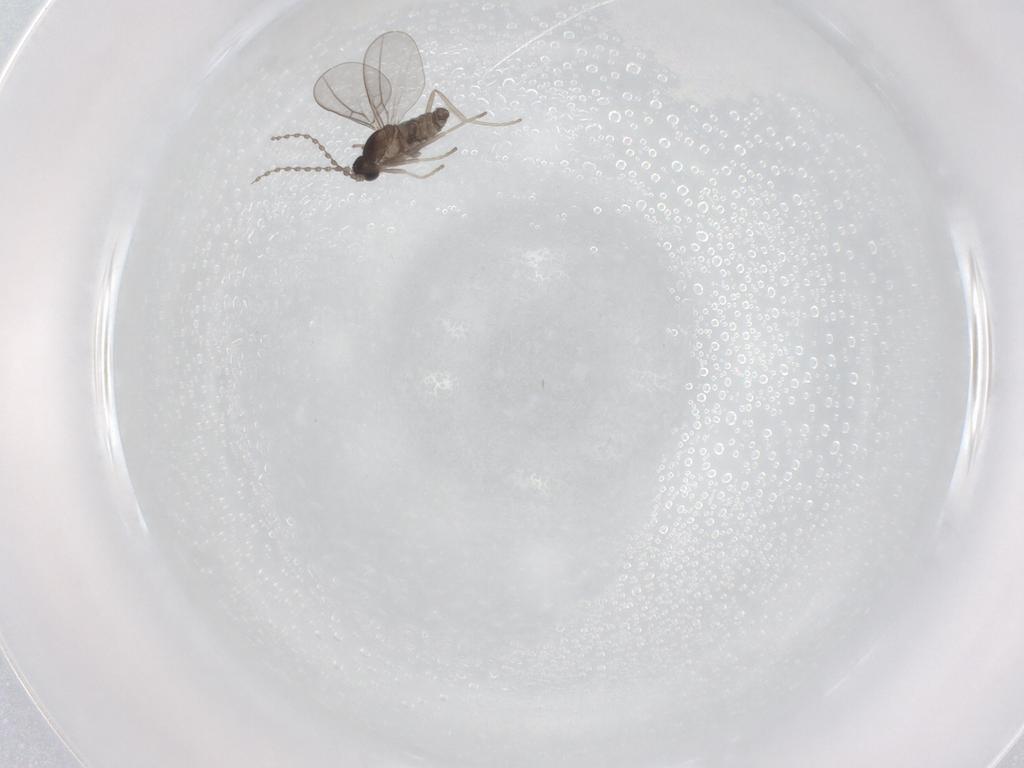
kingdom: Animalia
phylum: Arthropoda
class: Insecta
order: Diptera
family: Cecidomyiidae
